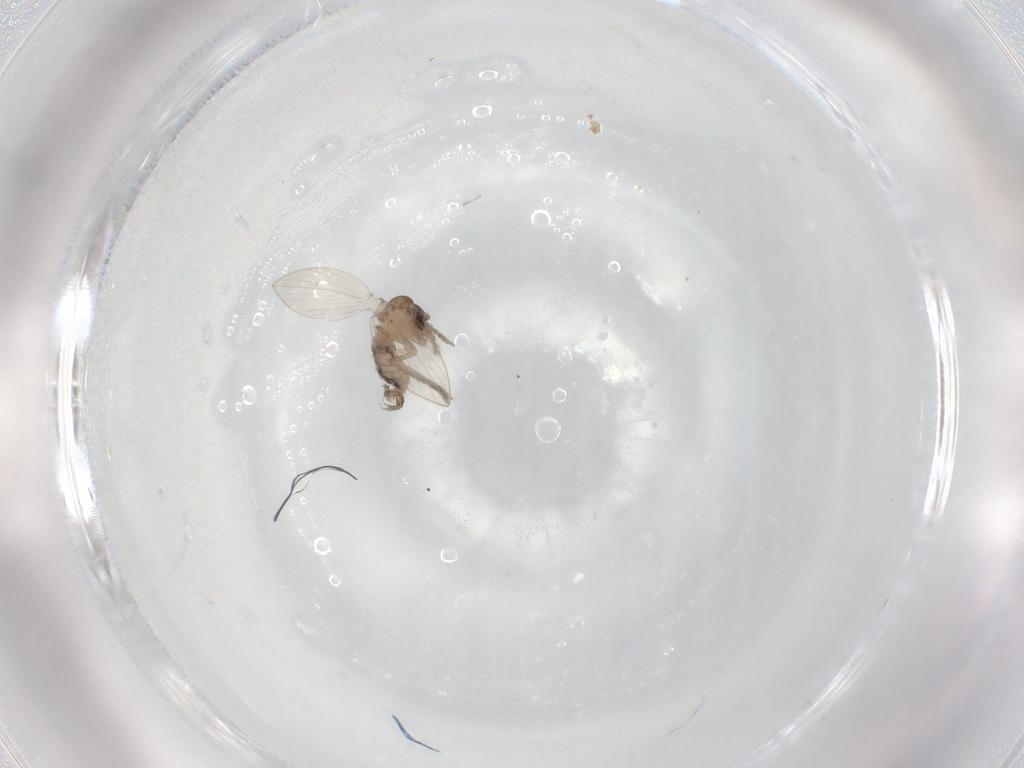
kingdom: Animalia
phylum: Arthropoda
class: Insecta
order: Diptera
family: Psychodidae
